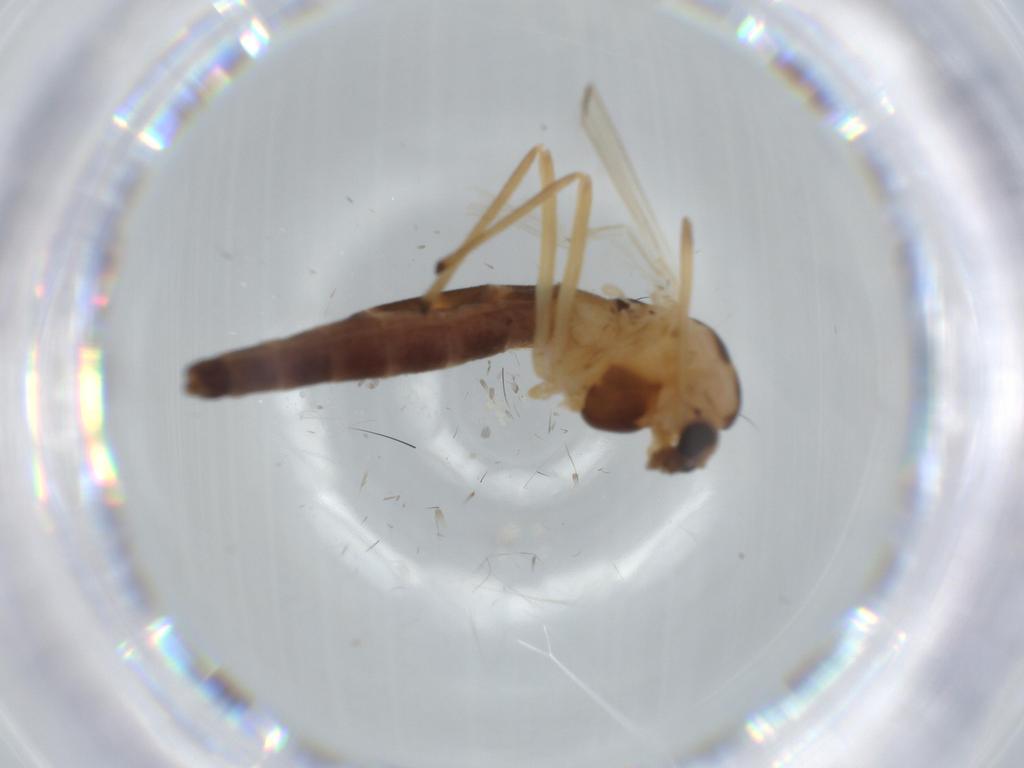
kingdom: Animalia
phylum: Arthropoda
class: Insecta
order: Diptera
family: Chironomidae
